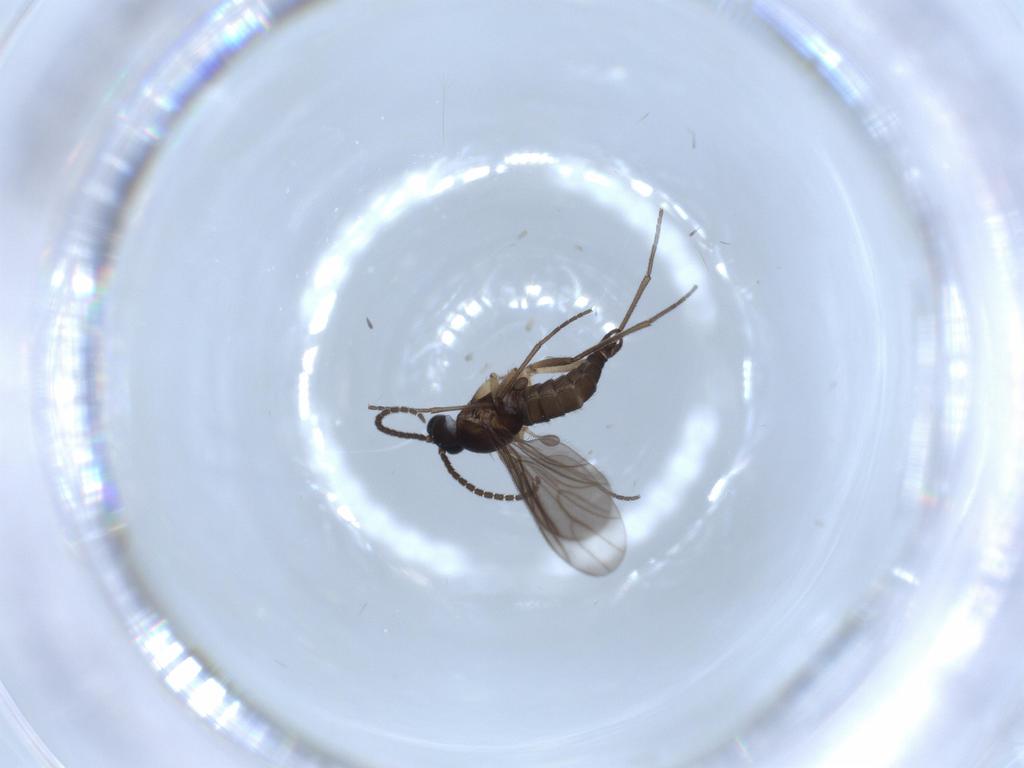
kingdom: Animalia
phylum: Arthropoda
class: Insecta
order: Diptera
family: Sciaridae
